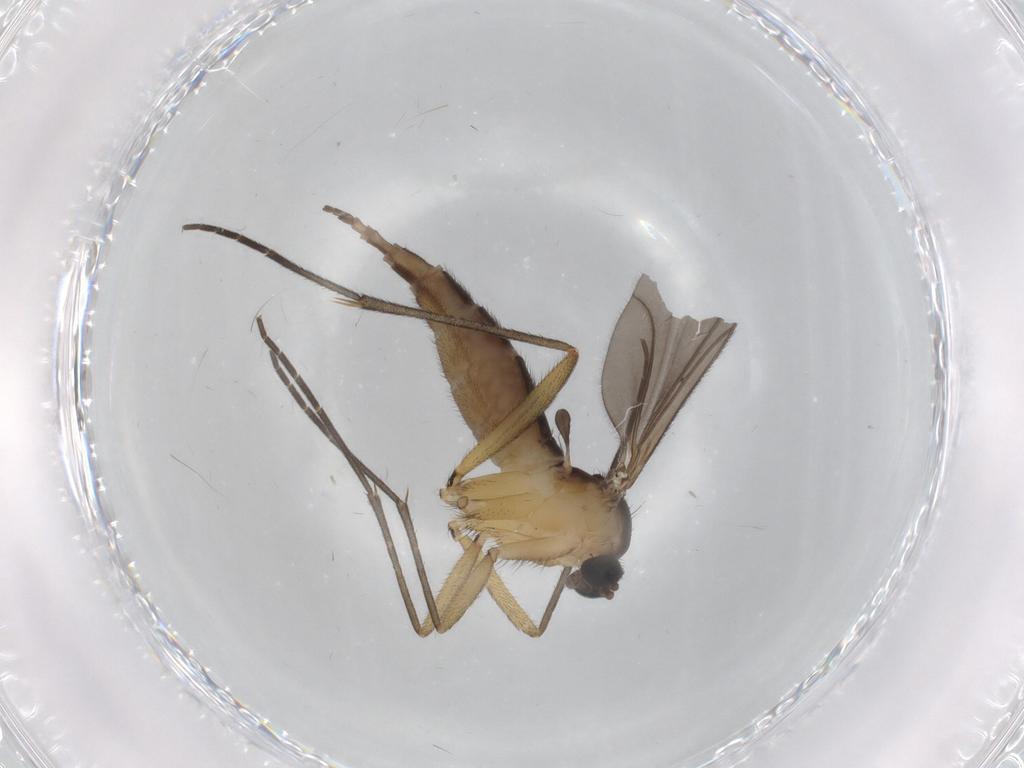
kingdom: Animalia
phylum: Arthropoda
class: Insecta
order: Diptera
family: Sciaridae
